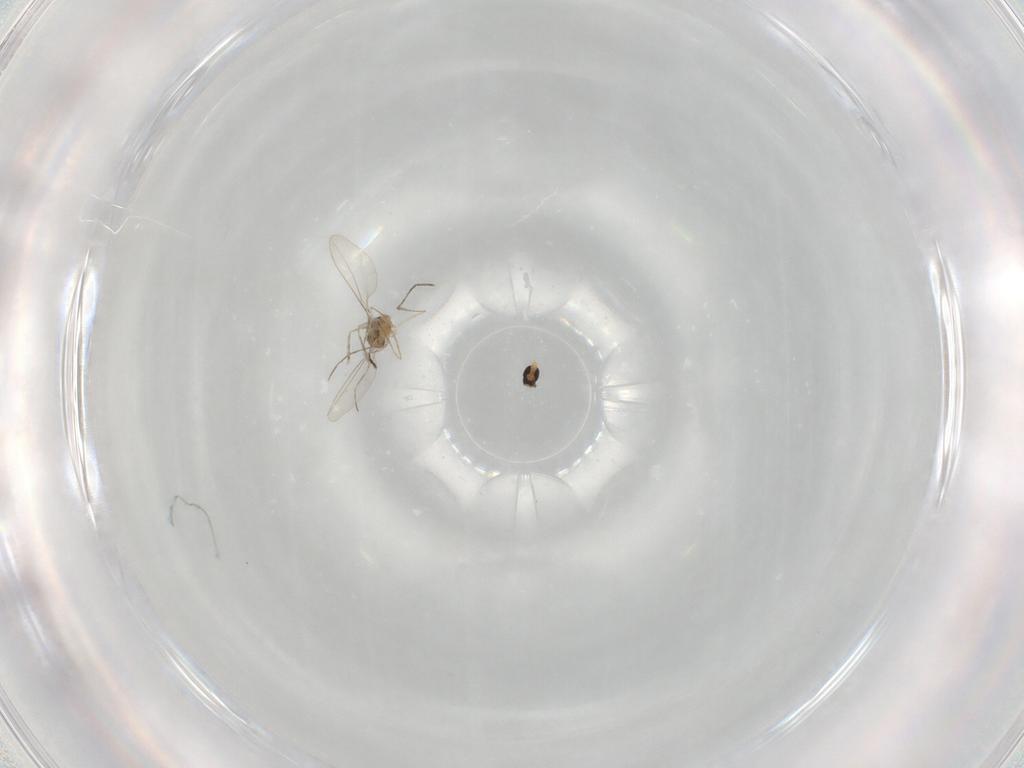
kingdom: Animalia
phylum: Arthropoda
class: Insecta
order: Diptera
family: Cecidomyiidae
